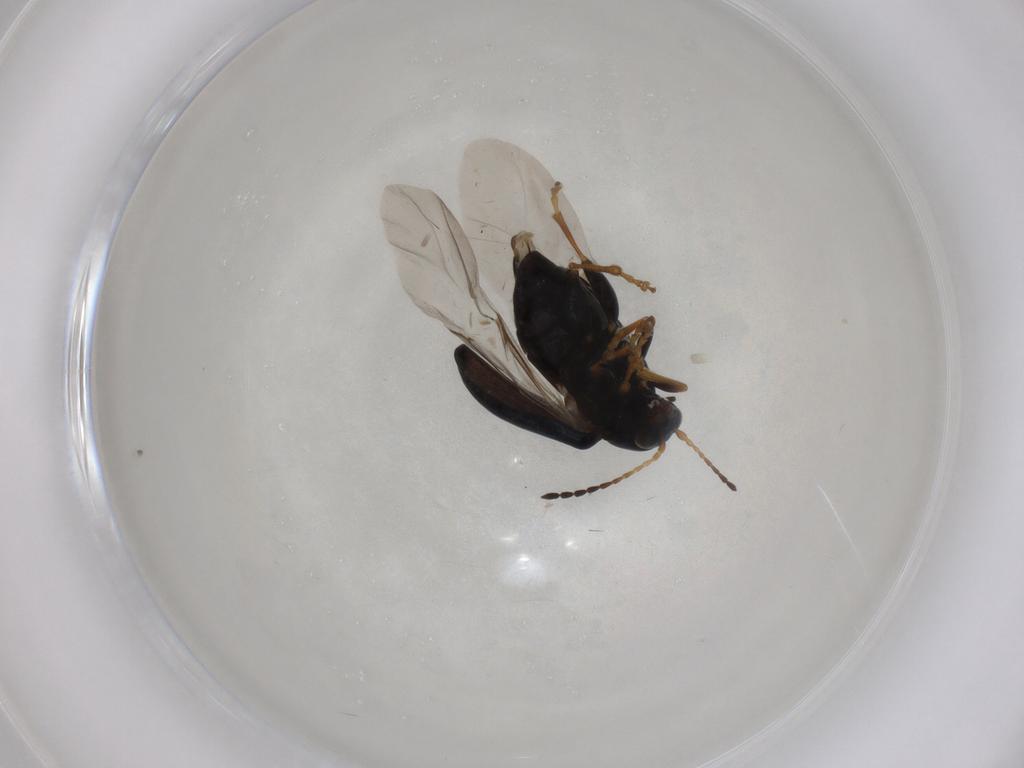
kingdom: Animalia
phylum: Arthropoda
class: Insecta
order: Coleoptera
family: Chrysomelidae
